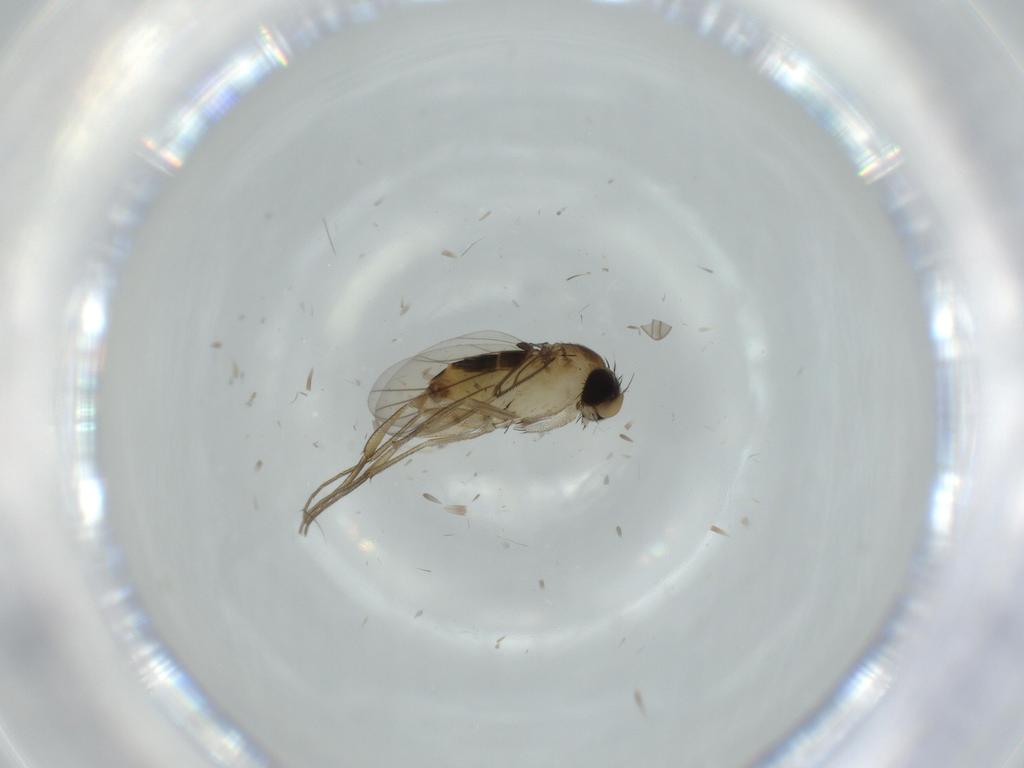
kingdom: Animalia
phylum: Arthropoda
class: Insecta
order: Diptera
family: Phoridae
